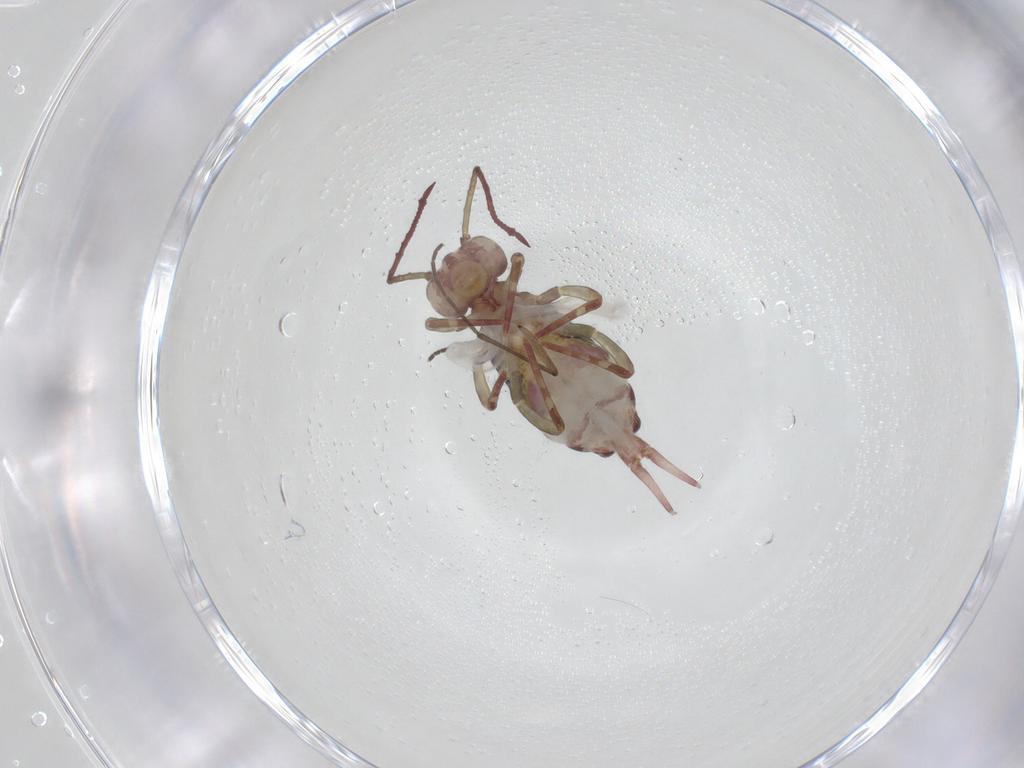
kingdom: Animalia
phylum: Arthropoda
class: Collembola
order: Symphypleona
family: Dicyrtomidae
